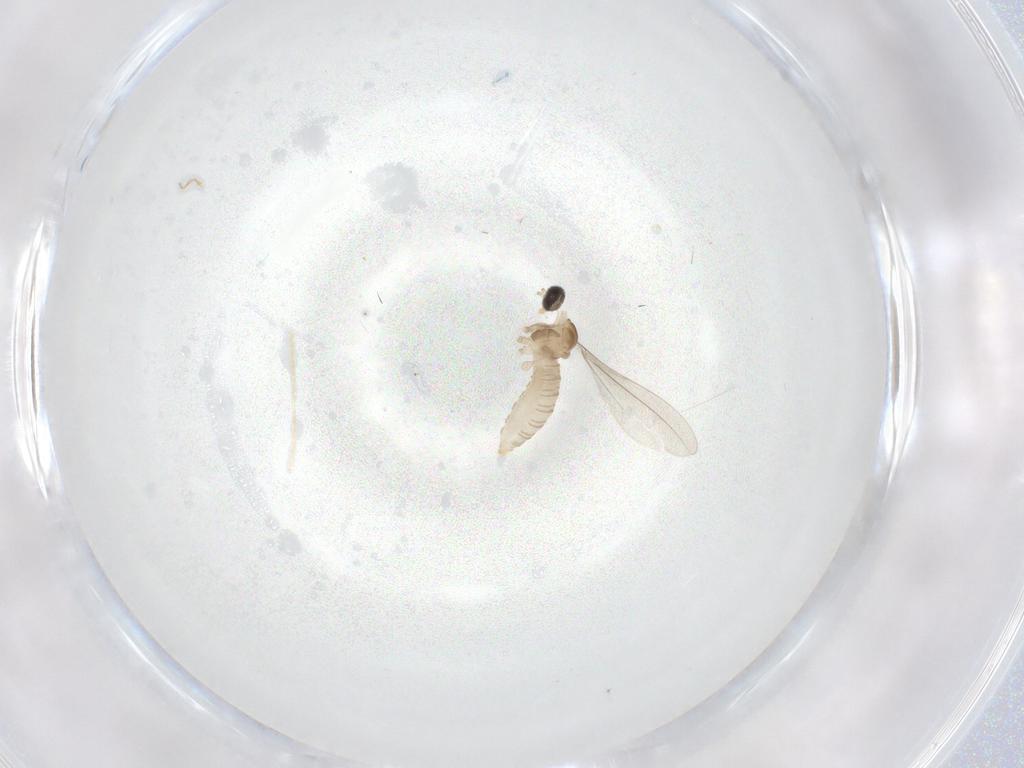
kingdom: Animalia
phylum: Arthropoda
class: Insecta
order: Diptera
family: Cecidomyiidae
